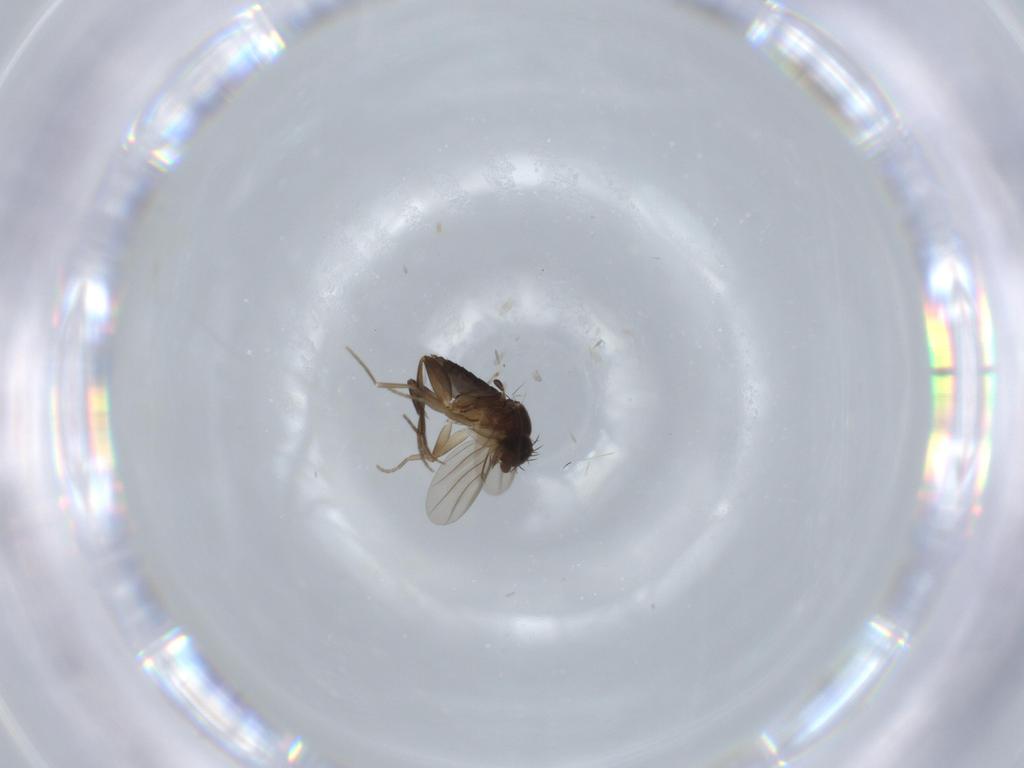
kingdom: Animalia
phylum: Arthropoda
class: Insecta
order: Diptera
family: Phoridae
